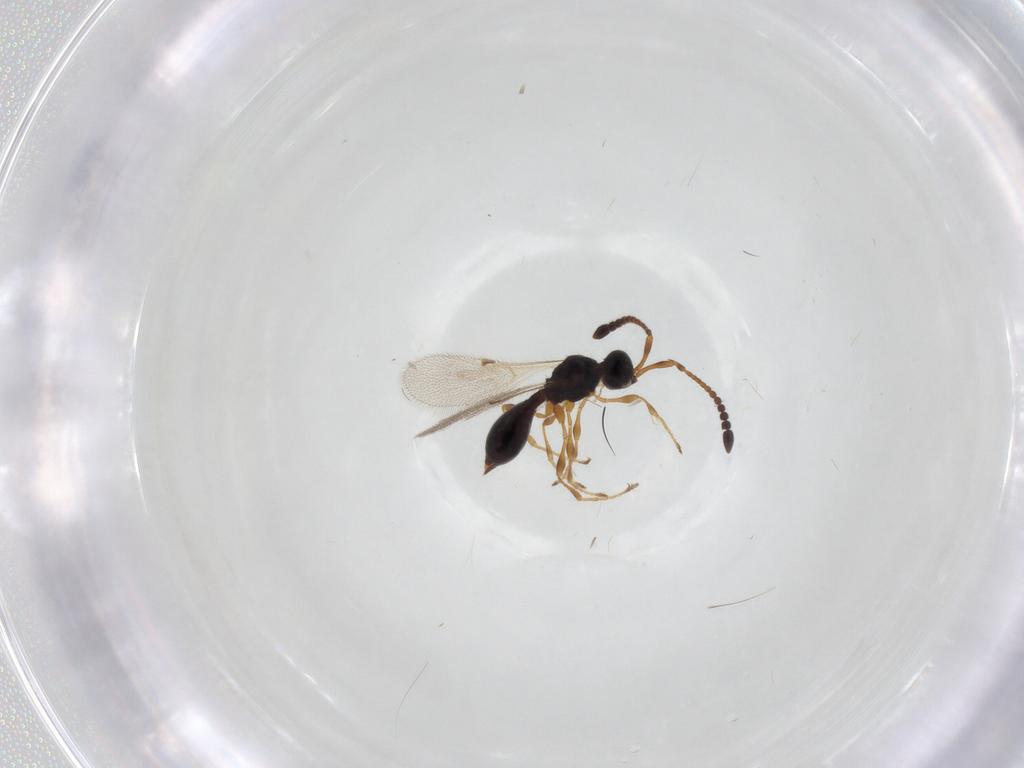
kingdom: Animalia
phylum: Arthropoda
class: Insecta
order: Hymenoptera
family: Diapriidae
